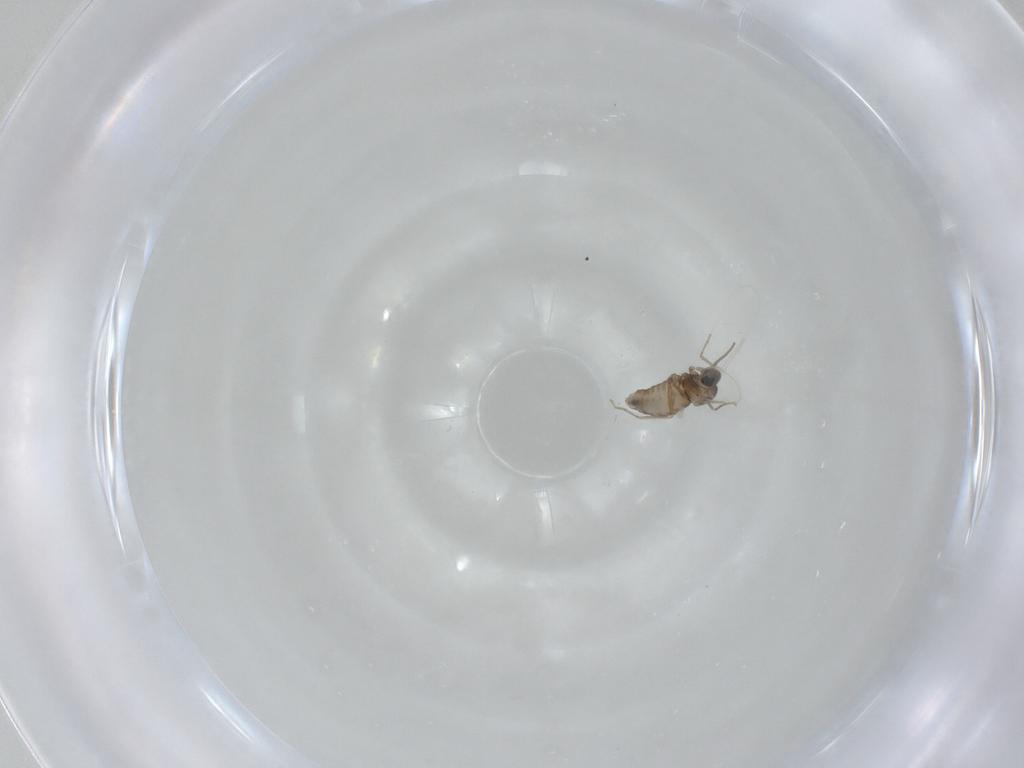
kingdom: Animalia
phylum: Arthropoda
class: Insecta
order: Diptera
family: Cecidomyiidae
